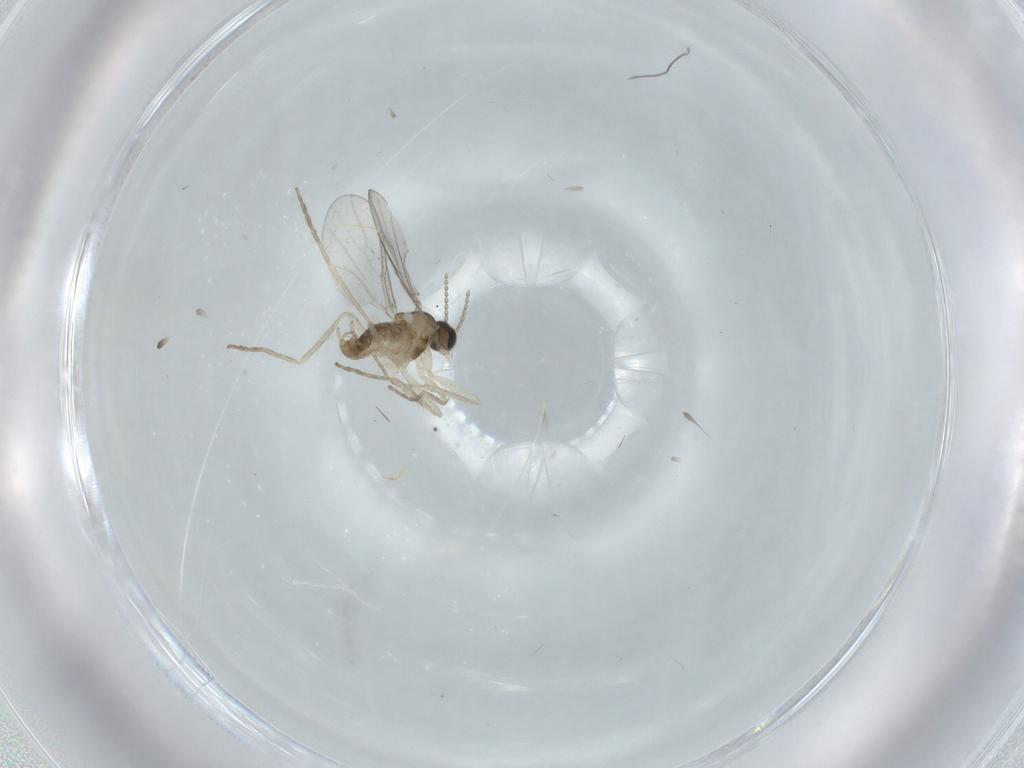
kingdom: Animalia
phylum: Arthropoda
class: Insecta
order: Diptera
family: Cecidomyiidae
